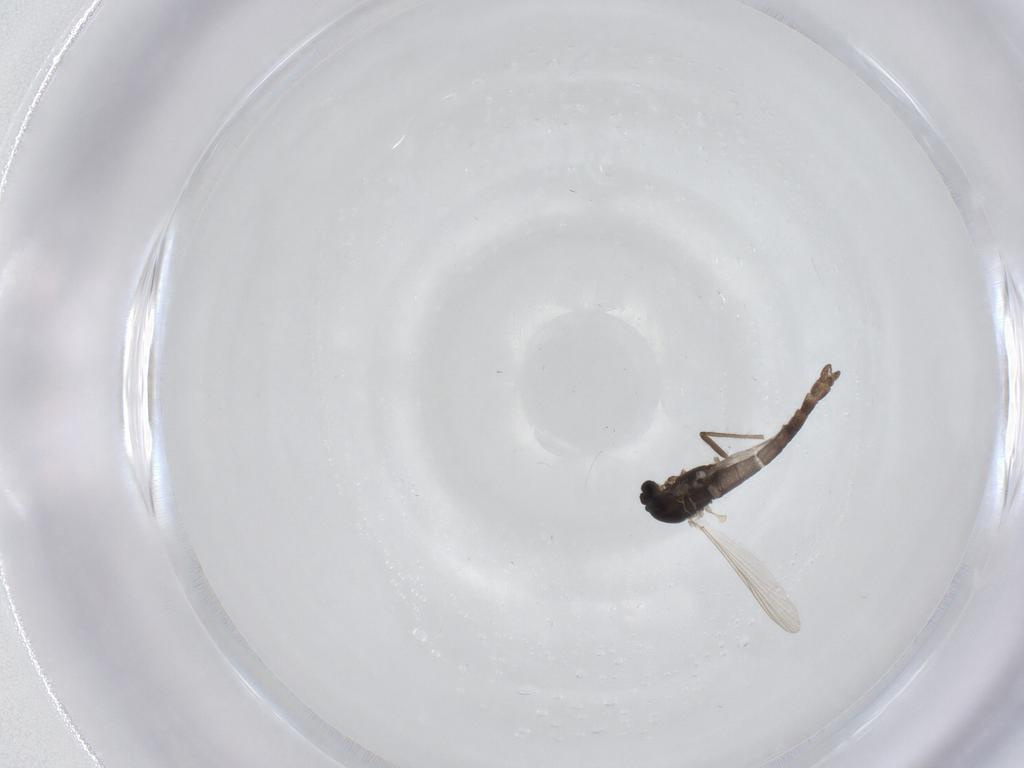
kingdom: Animalia
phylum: Arthropoda
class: Insecta
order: Diptera
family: Chironomidae
